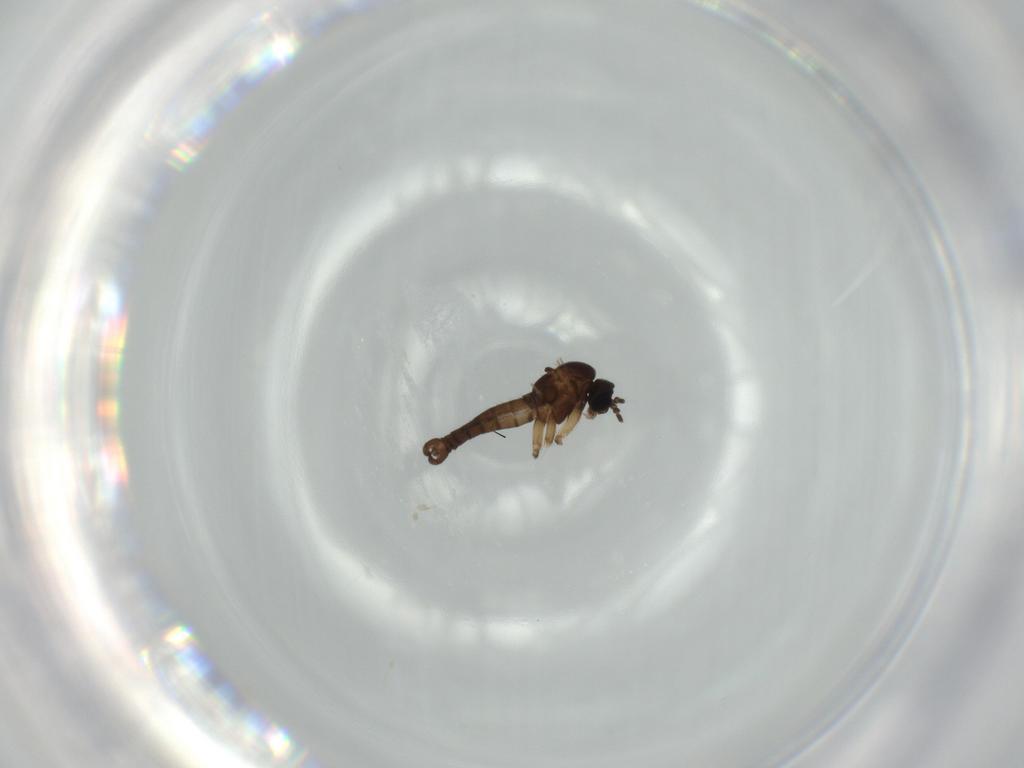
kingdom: Animalia
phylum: Arthropoda
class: Insecta
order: Diptera
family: Sciaridae
